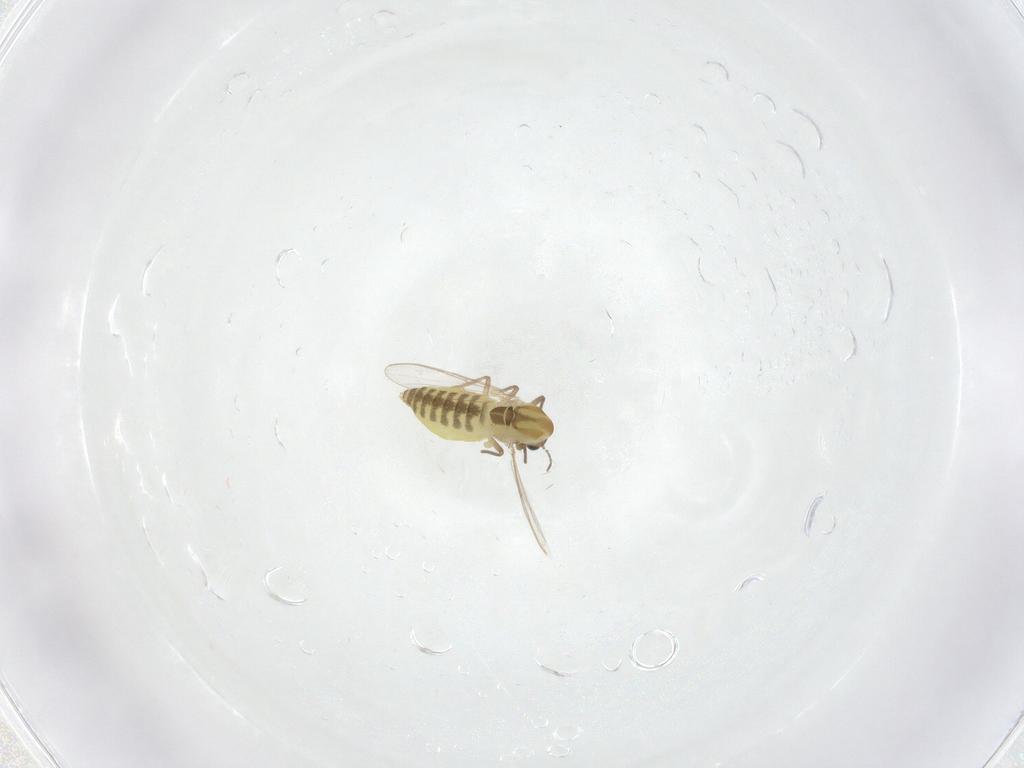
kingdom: Animalia
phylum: Arthropoda
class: Insecta
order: Diptera
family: Chironomidae
